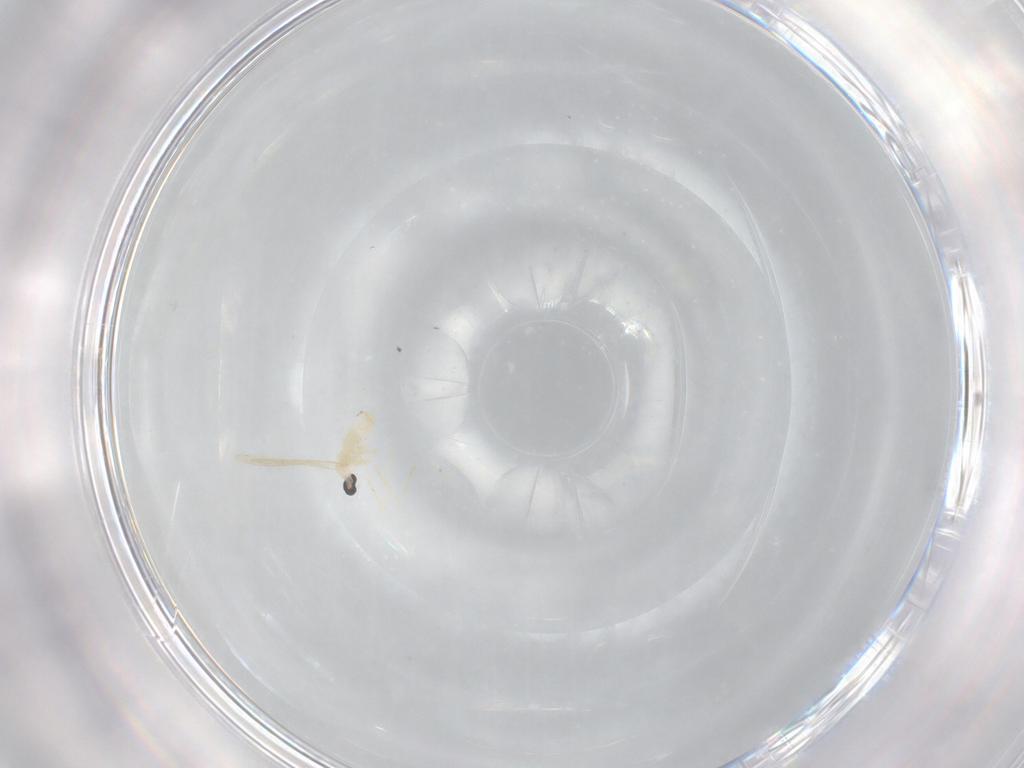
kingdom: Animalia
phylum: Arthropoda
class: Insecta
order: Diptera
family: Cecidomyiidae
